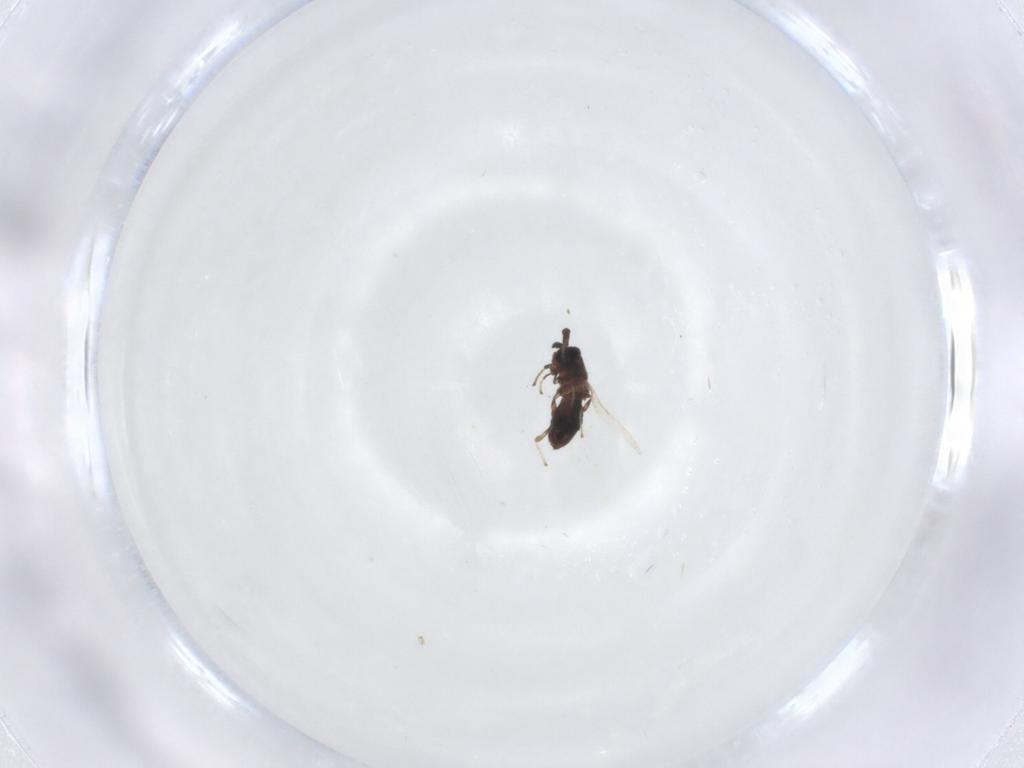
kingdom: Animalia
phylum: Arthropoda
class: Insecta
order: Diptera
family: Scatopsidae
